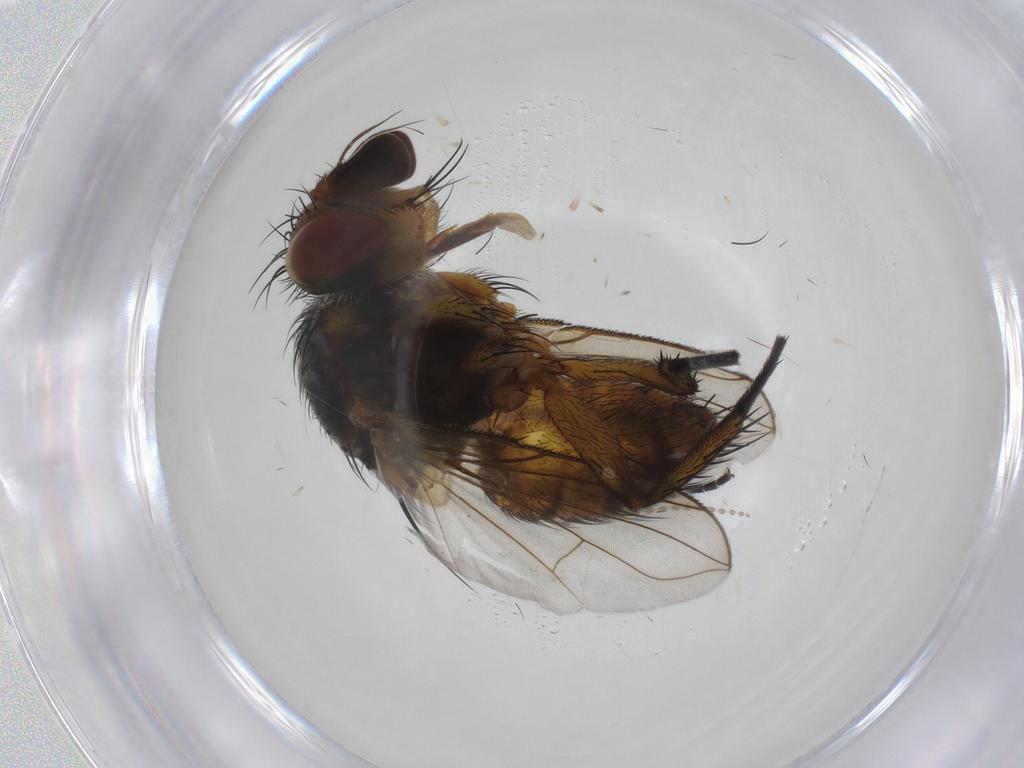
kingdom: Animalia
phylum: Arthropoda
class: Insecta
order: Diptera
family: Tachinidae
